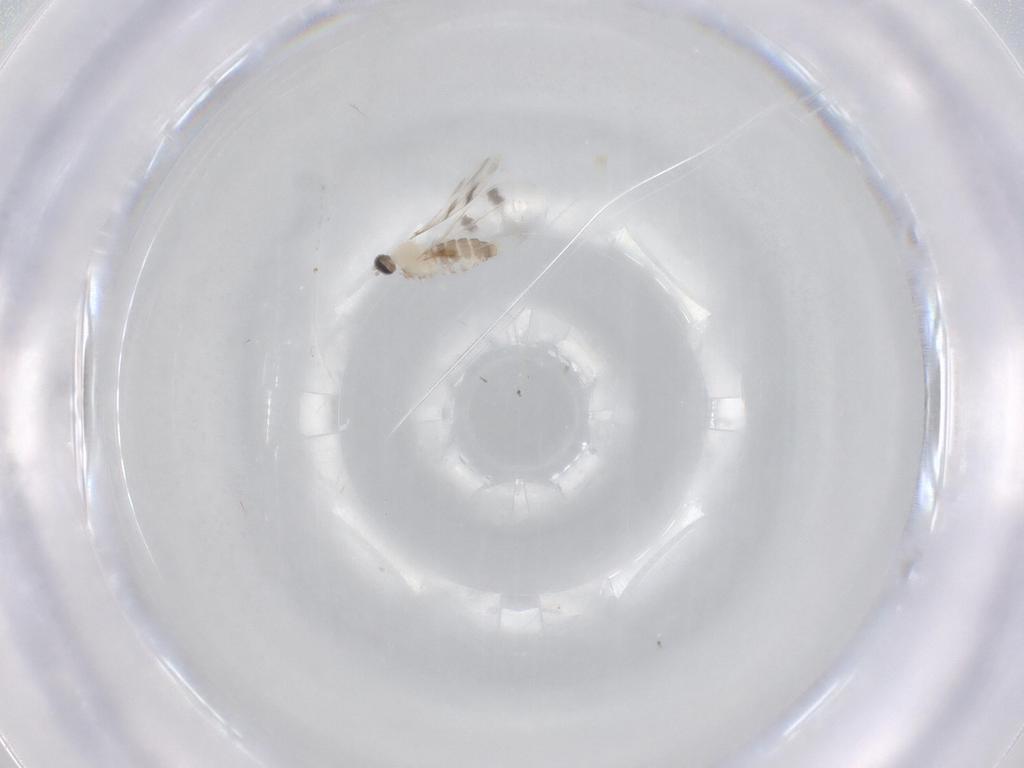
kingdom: Animalia
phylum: Arthropoda
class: Insecta
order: Diptera
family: Cecidomyiidae
